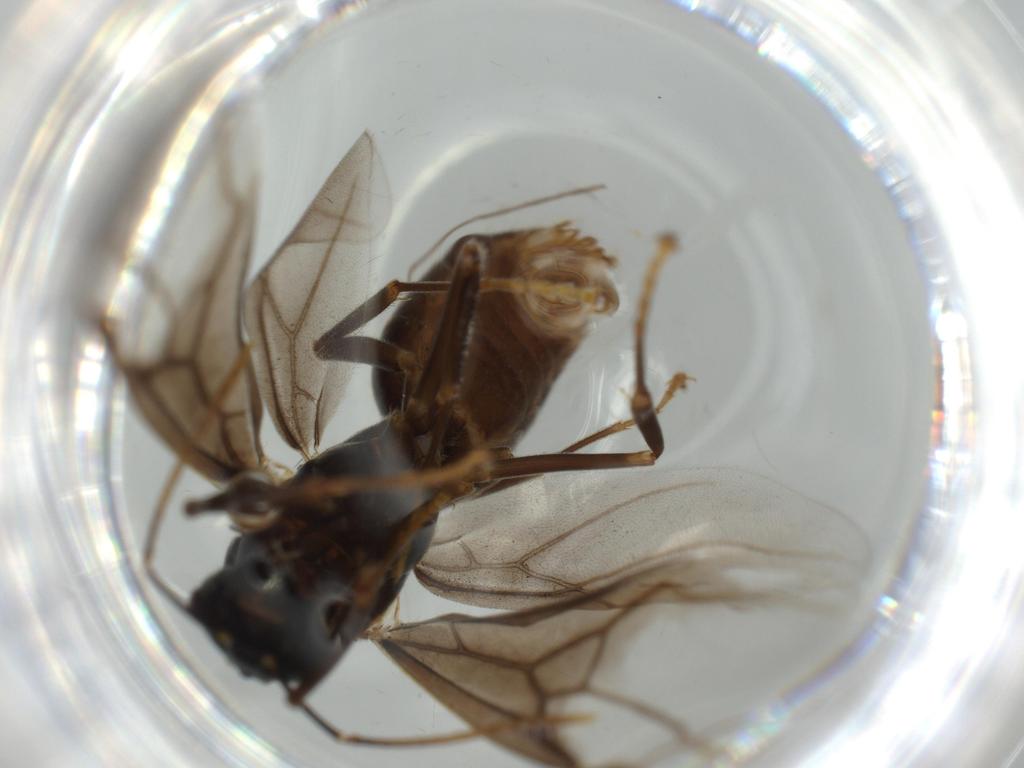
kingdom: Animalia
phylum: Arthropoda
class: Insecta
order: Hymenoptera
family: Formicidae
